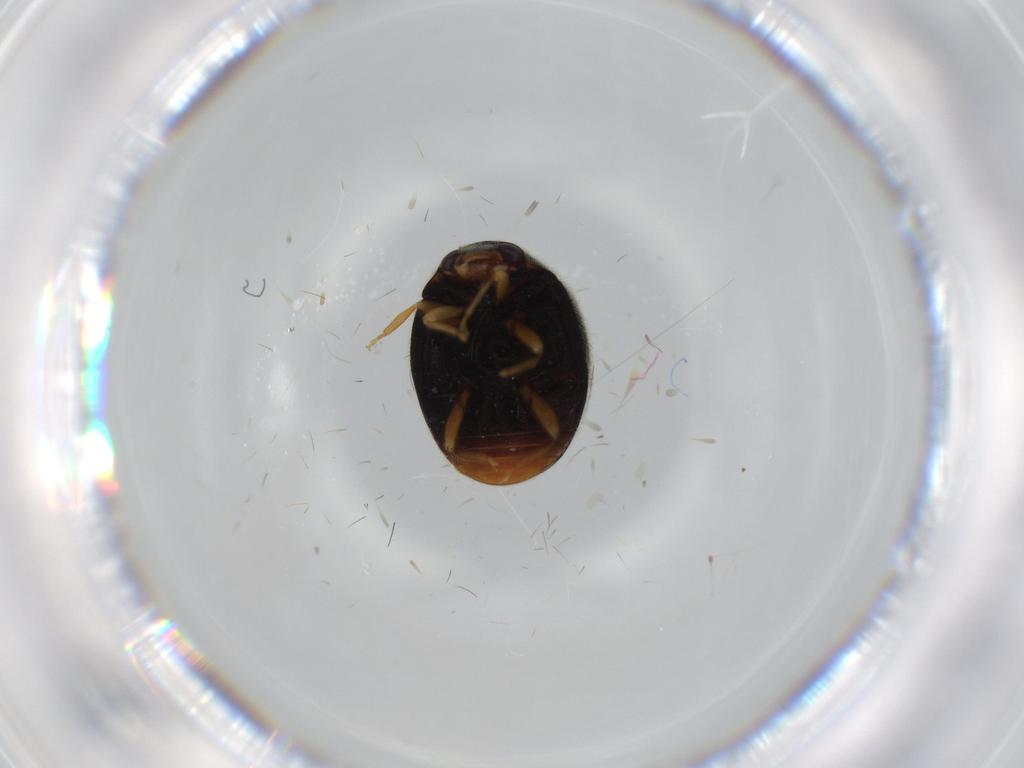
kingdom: Animalia
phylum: Arthropoda
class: Insecta
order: Coleoptera
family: Coccinellidae
